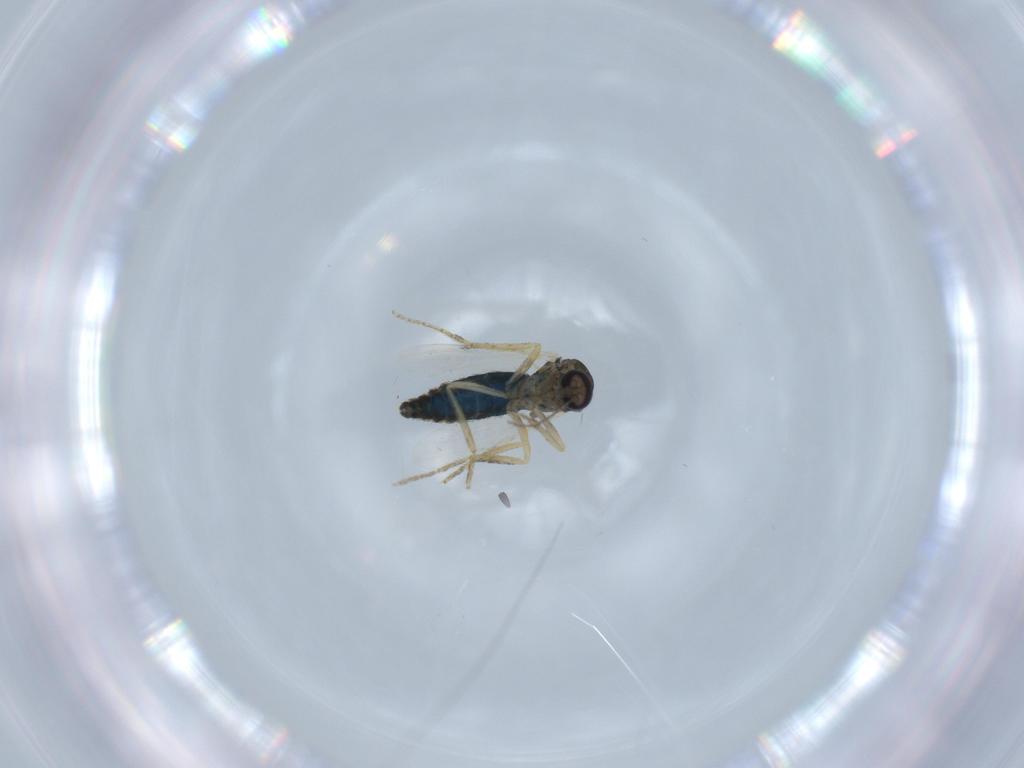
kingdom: Animalia
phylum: Arthropoda
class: Insecta
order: Diptera
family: Ceratopogonidae
